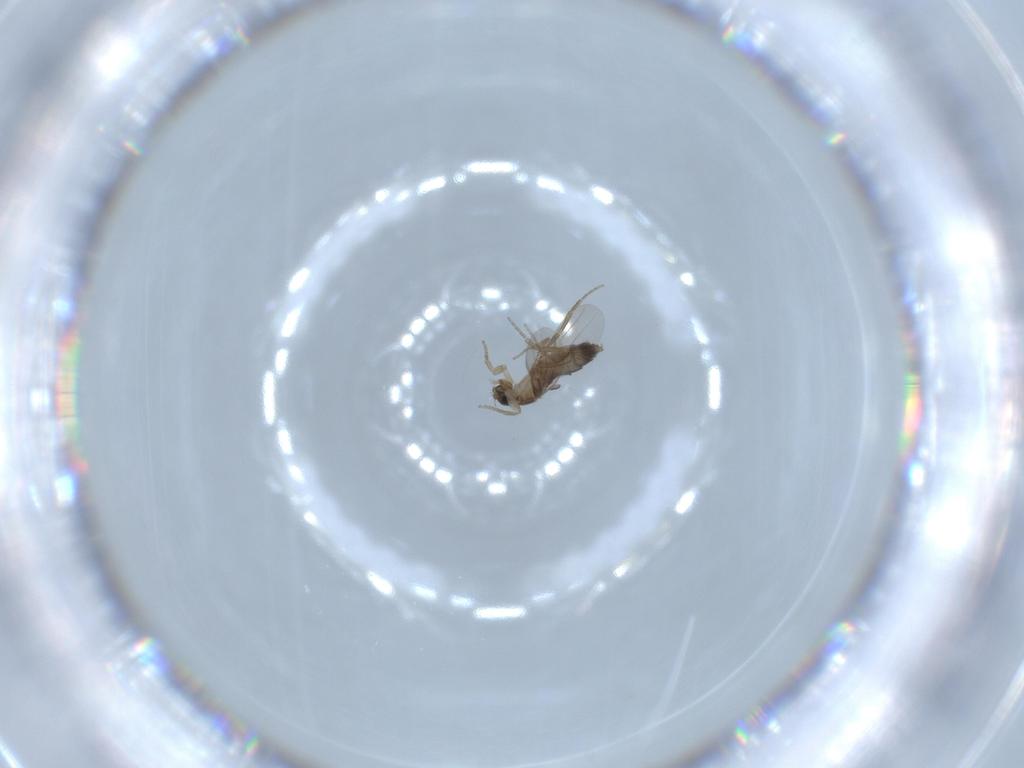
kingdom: Animalia
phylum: Arthropoda
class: Insecta
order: Diptera
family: Phoridae
